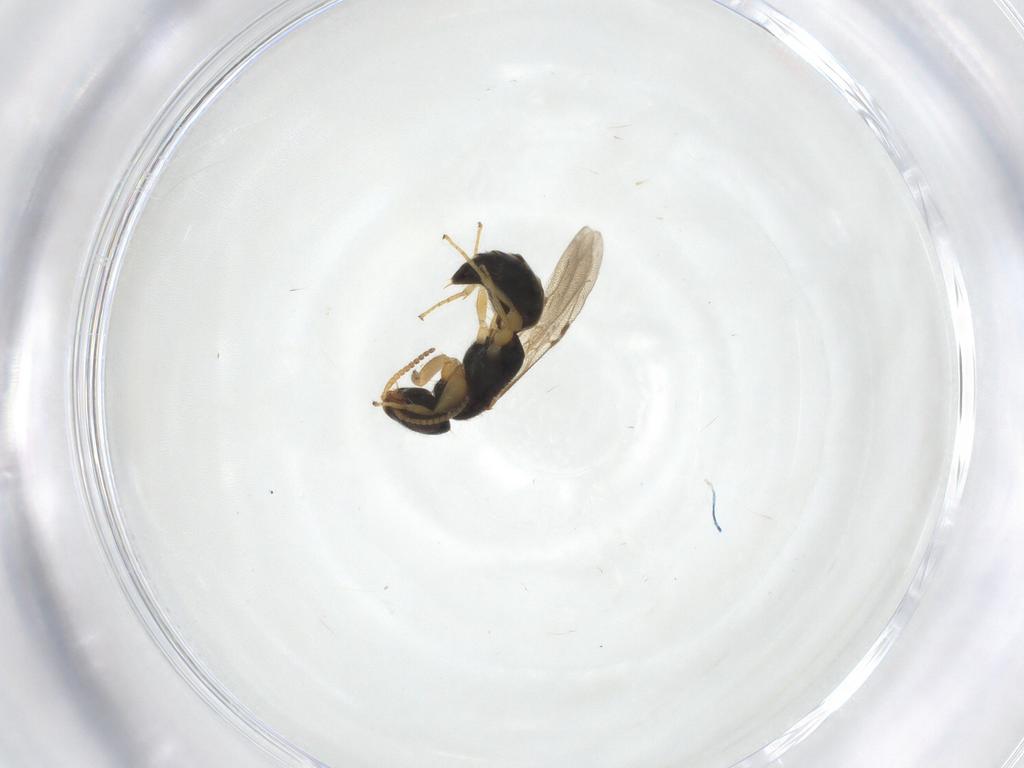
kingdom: Animalia
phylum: Arthropoda
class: Insecta
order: Hymenoptera
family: Bethylidae
